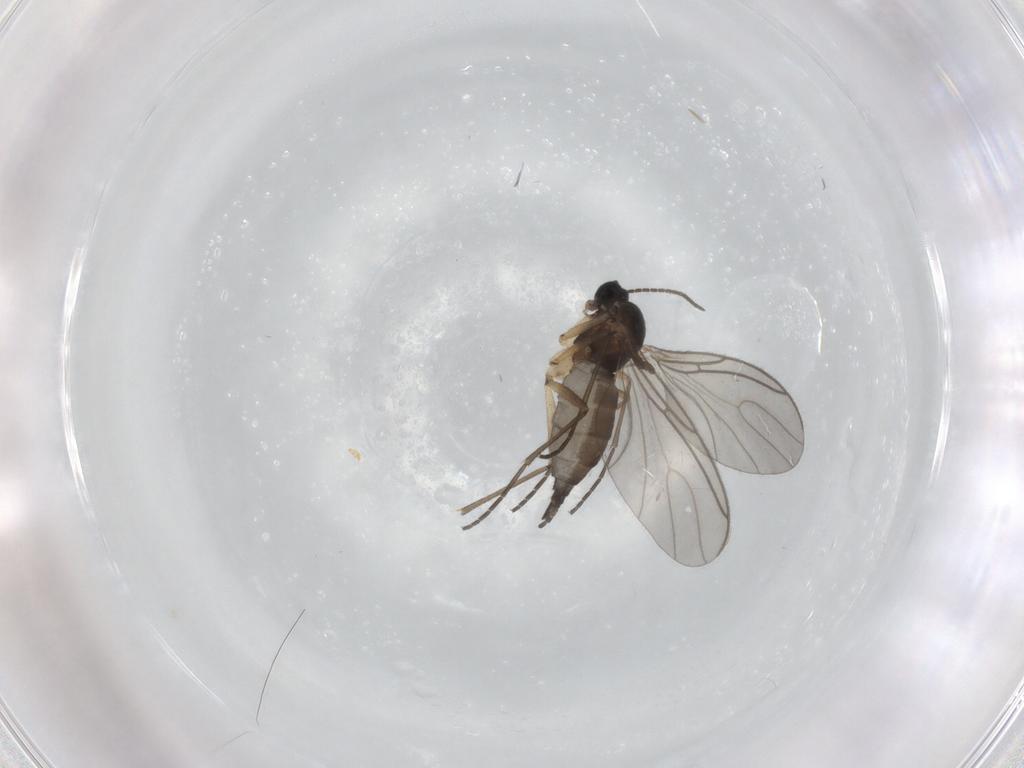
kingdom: Animalia
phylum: Arthropoda
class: Insecta
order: Diptera
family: Sciaridae
